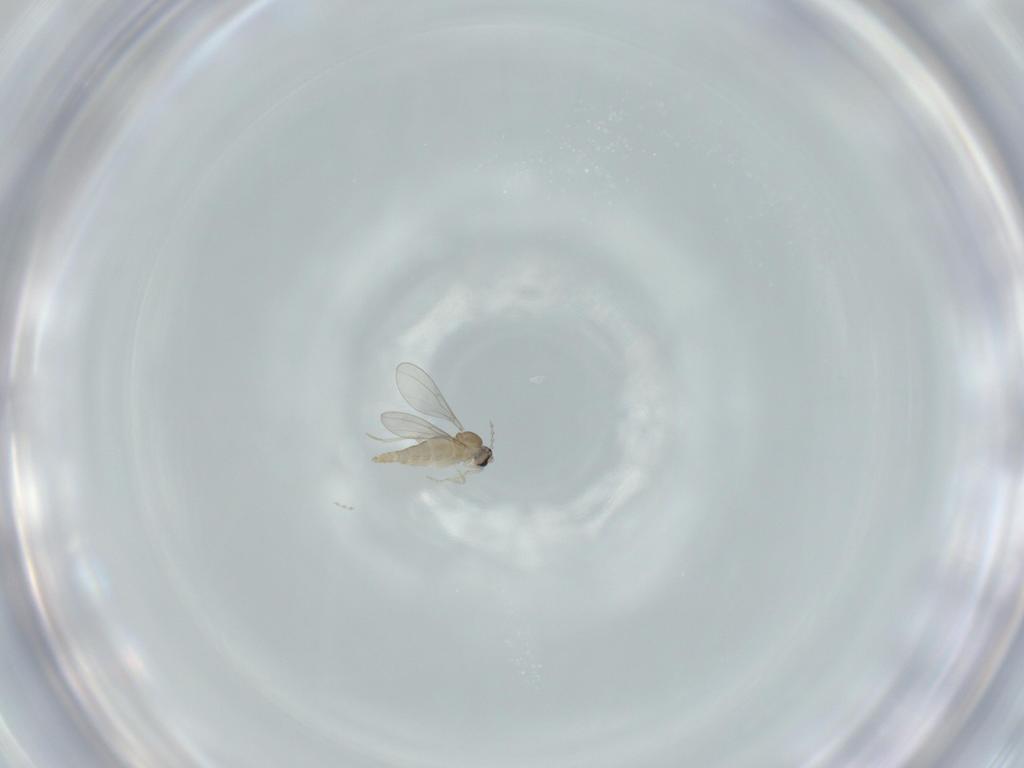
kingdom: Animalia
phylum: Arthropoda
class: Insecta
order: Diptera
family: Cecidomyiidae
